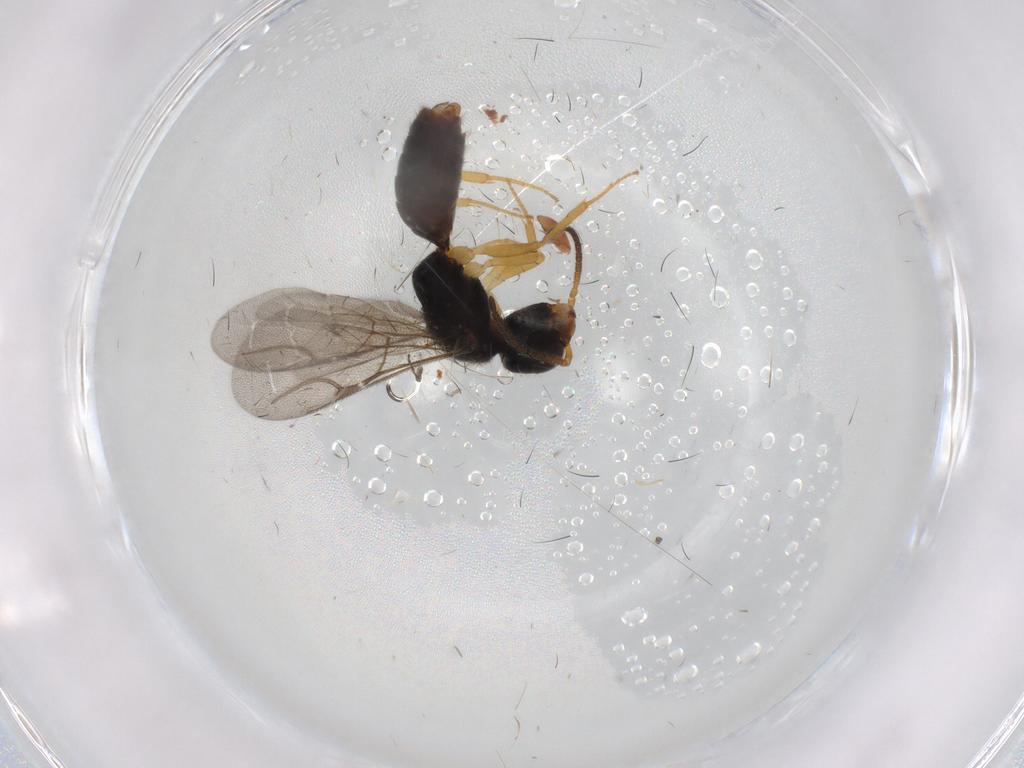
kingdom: Animalia
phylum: Arthropoda
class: Insecta
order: Hymenoptera
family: Bethylidae
